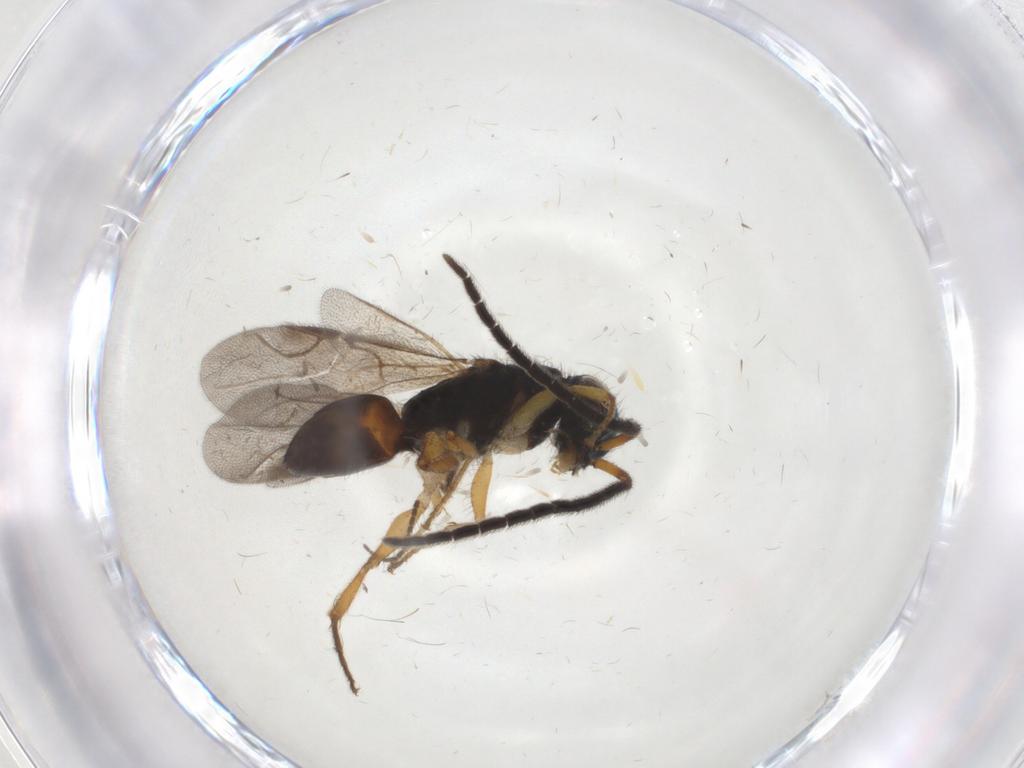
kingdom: Animalia
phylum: Arthropoda
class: Insecta
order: Hymenoptera
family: Chrysididae
